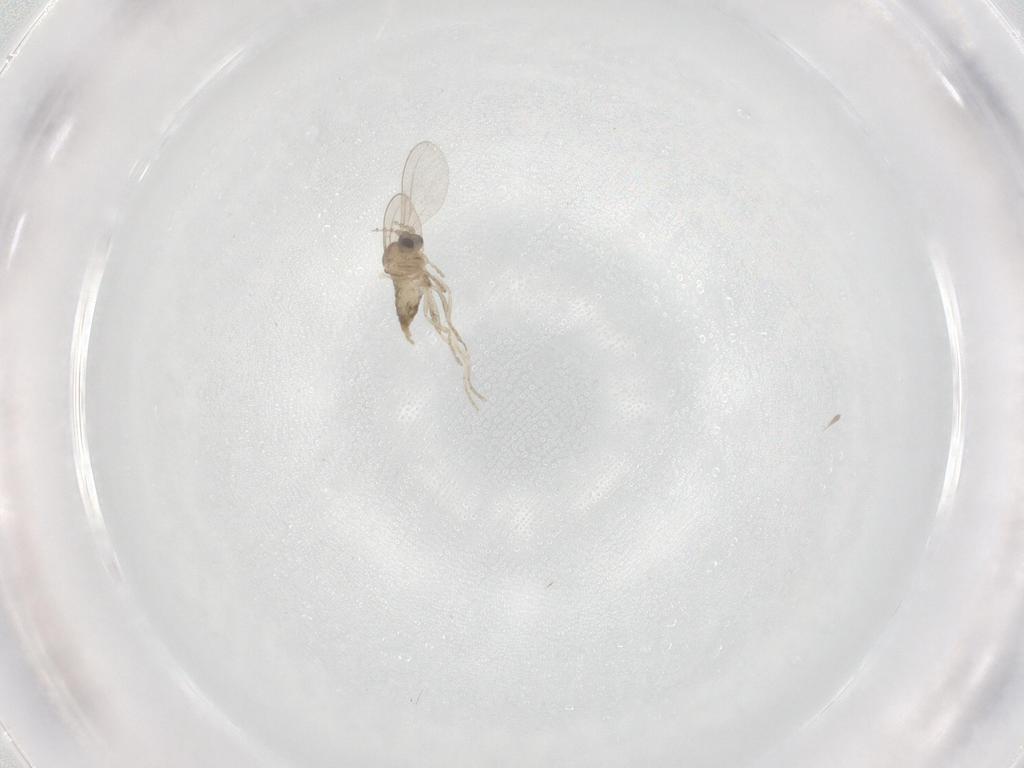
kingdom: Animalia
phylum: Arthropoda
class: Insecta
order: Diptera
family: Cecidomyiidae
